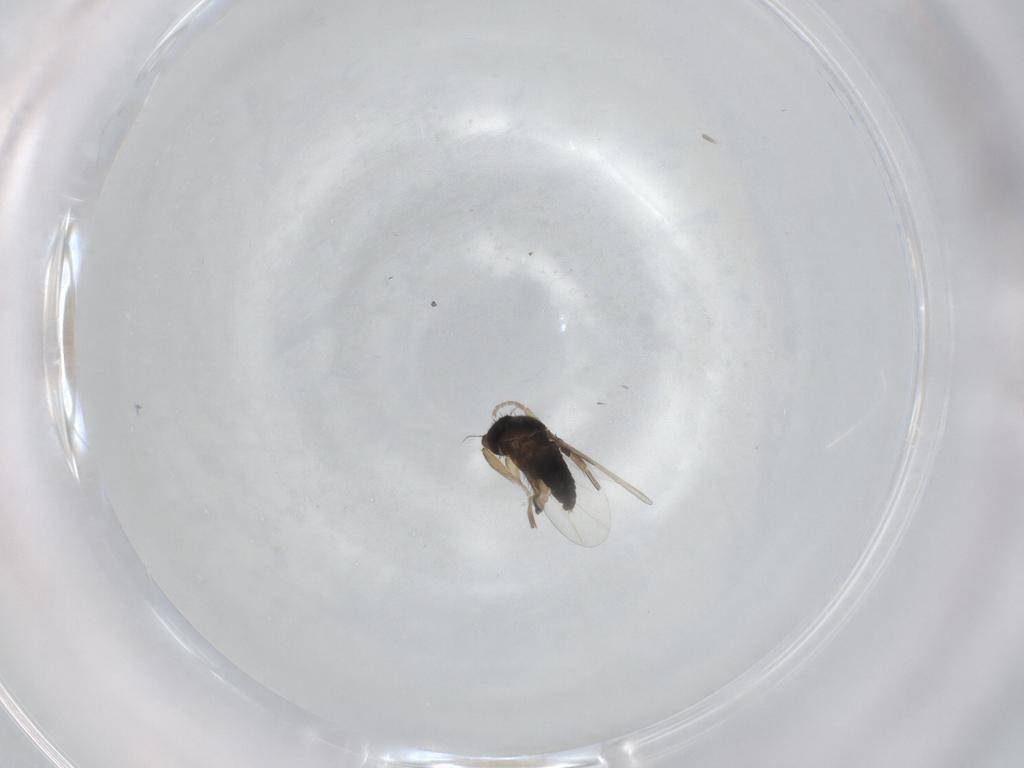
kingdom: Animalia
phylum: Arthropoda
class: Insecta
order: Diptera
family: Phoridae
